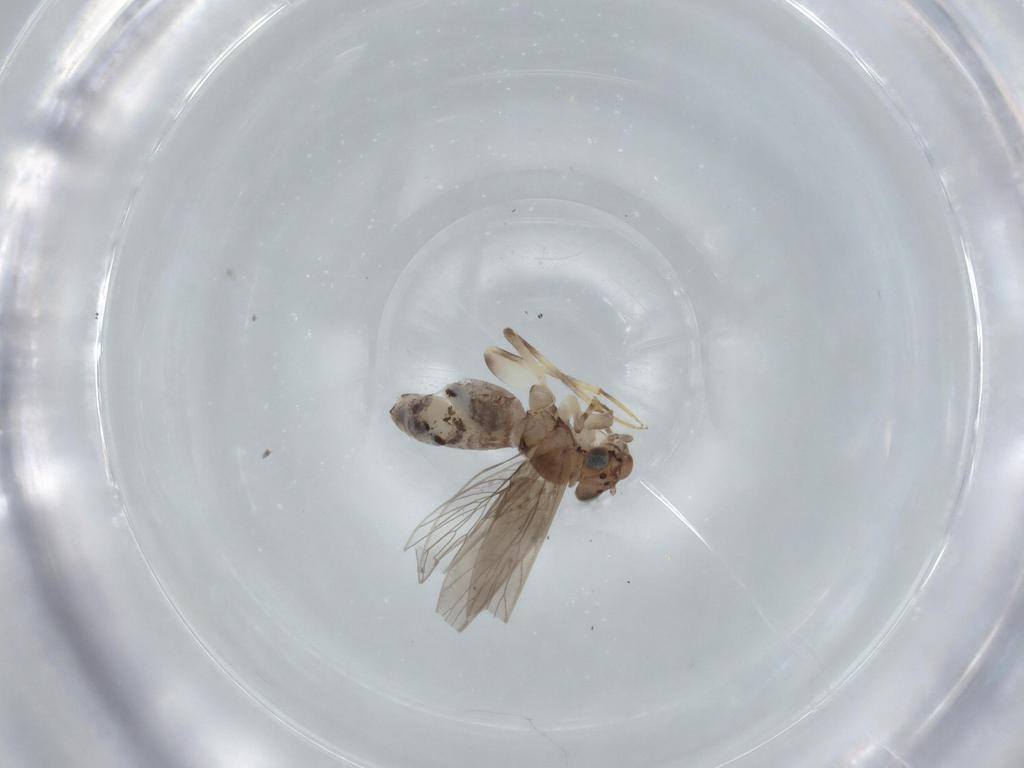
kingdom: Animalia
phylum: Arthropoda
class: Insecta
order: Psocodea
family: Lepidopsocidae
